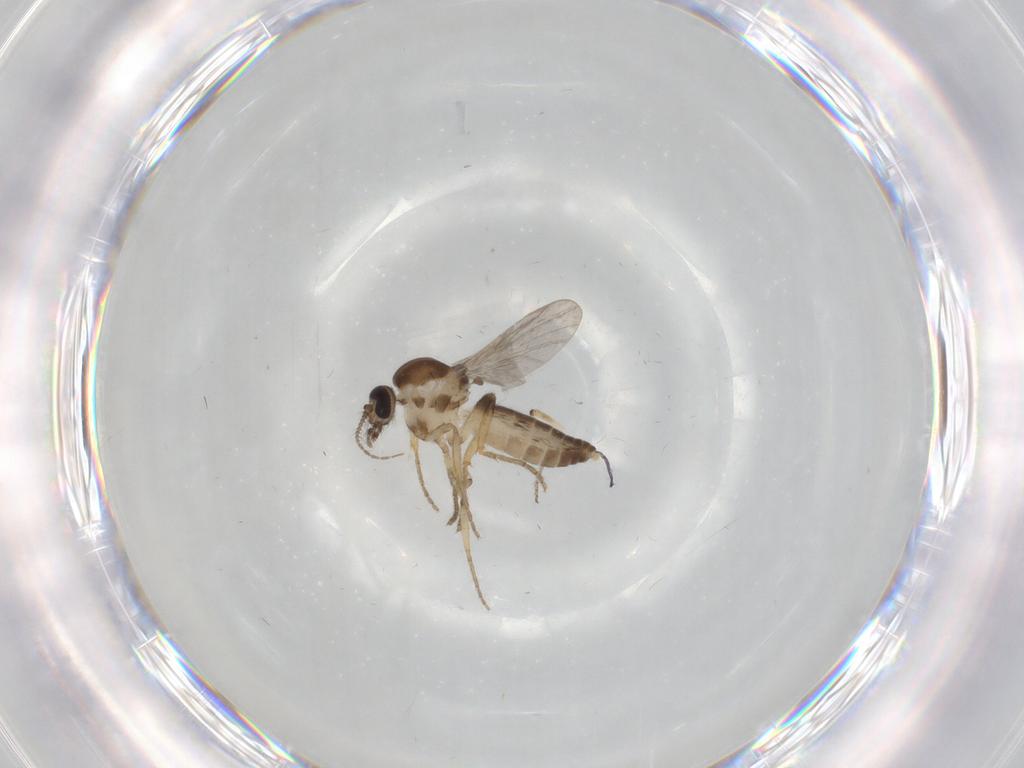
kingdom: Animalia
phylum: Arthropoda
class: Insecta
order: Diptera
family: Ceratopogonidae
